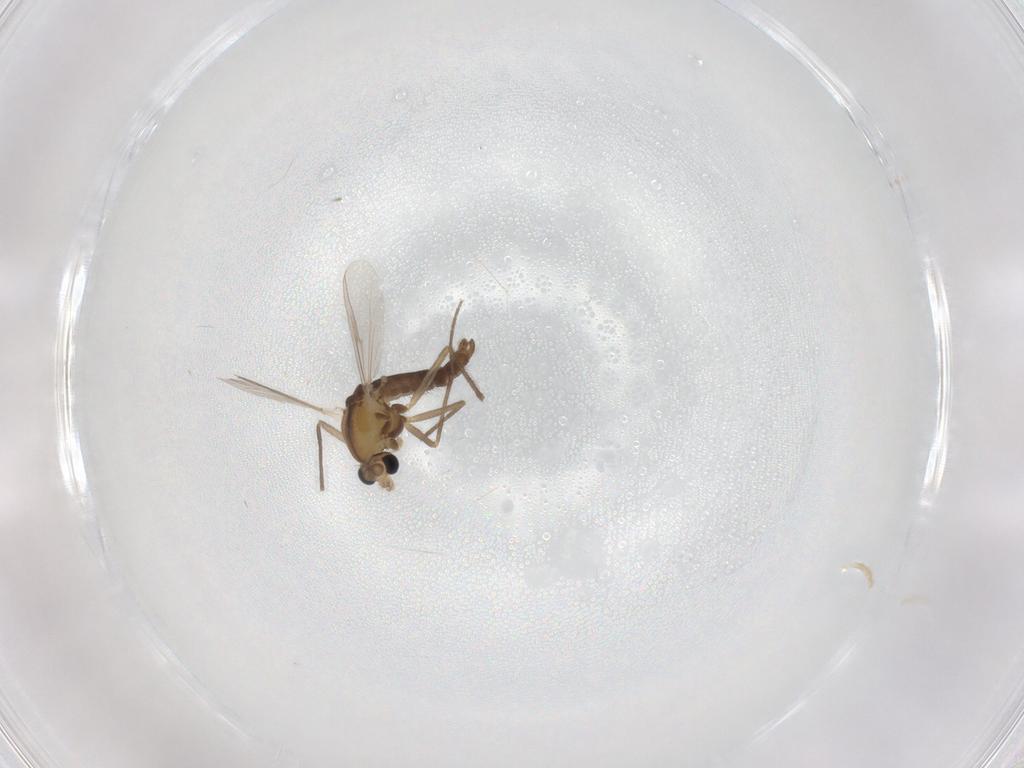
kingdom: Animalia
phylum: Arthropoda
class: Insecta
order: Diptera
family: Chironomidae
